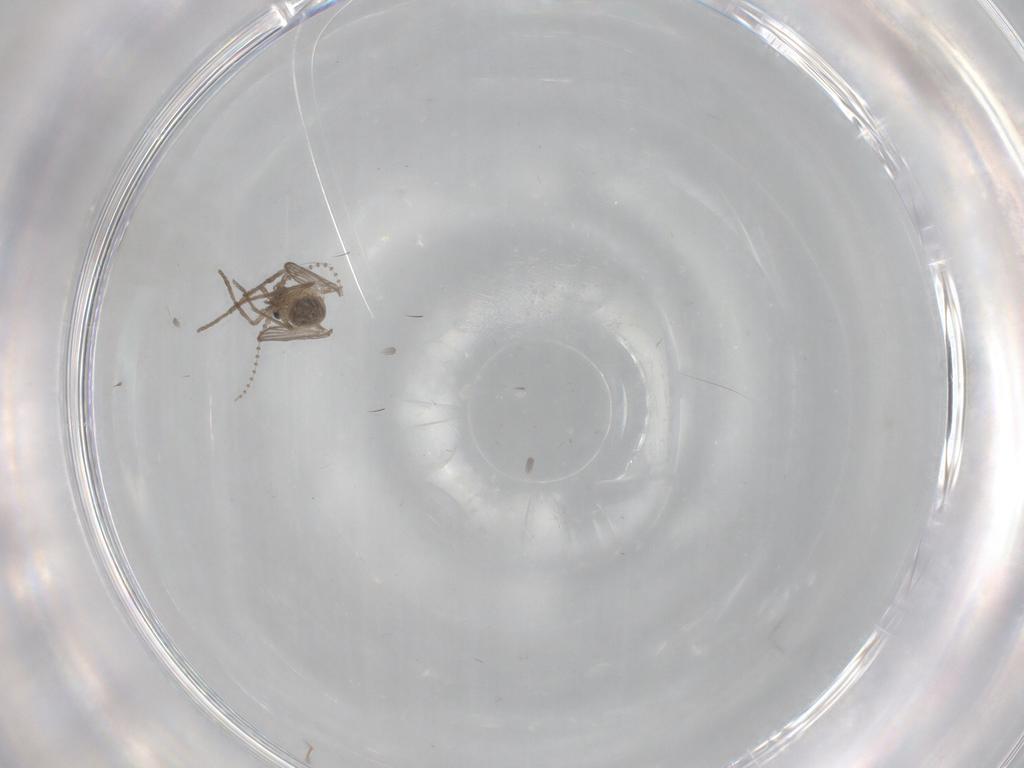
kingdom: Animalia
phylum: Arthropoda
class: Insecta
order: Diptera
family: Psychodidae
